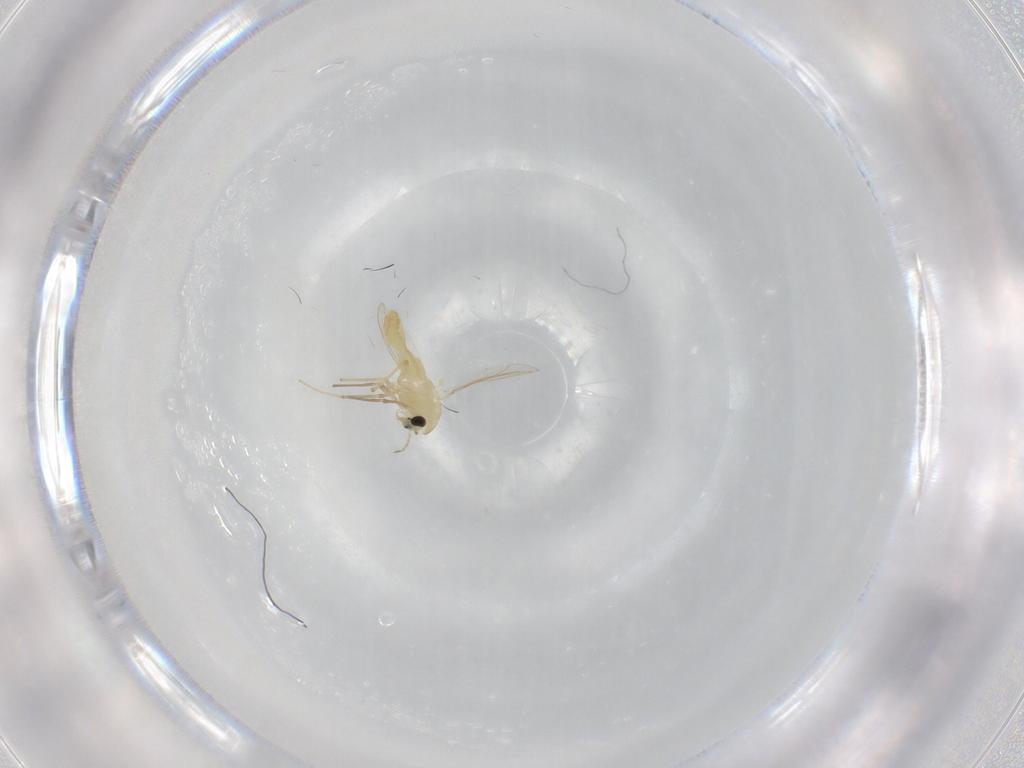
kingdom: Animalia
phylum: Arthropoda
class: Insecta
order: Diptera
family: Chironomidae
